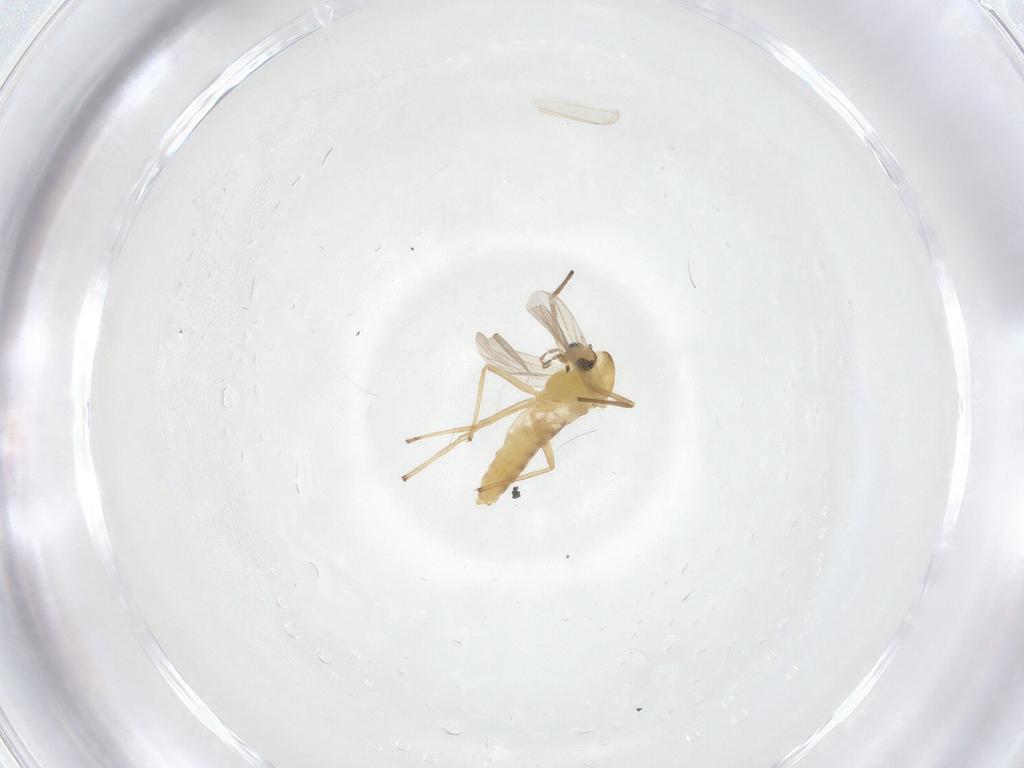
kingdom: Animalia
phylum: Arthropoda
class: Insecta
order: Diptera
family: Chironomidae
